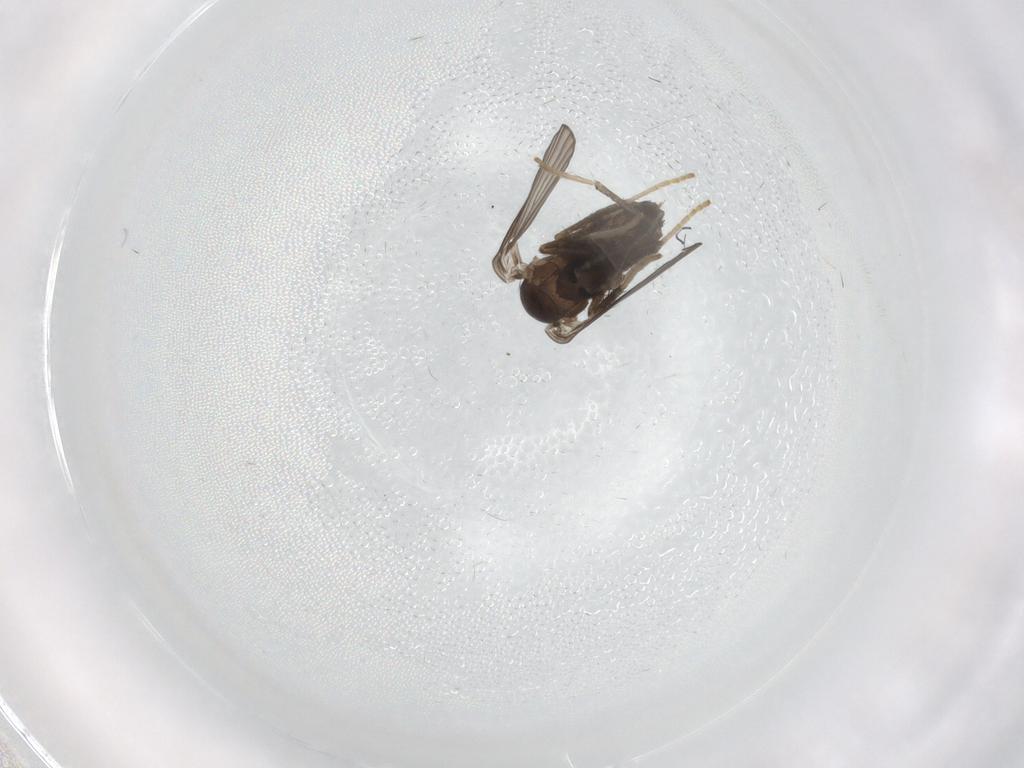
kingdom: Animalia
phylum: Arthropoda
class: Insecta
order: Diptera
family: Psychodidae
